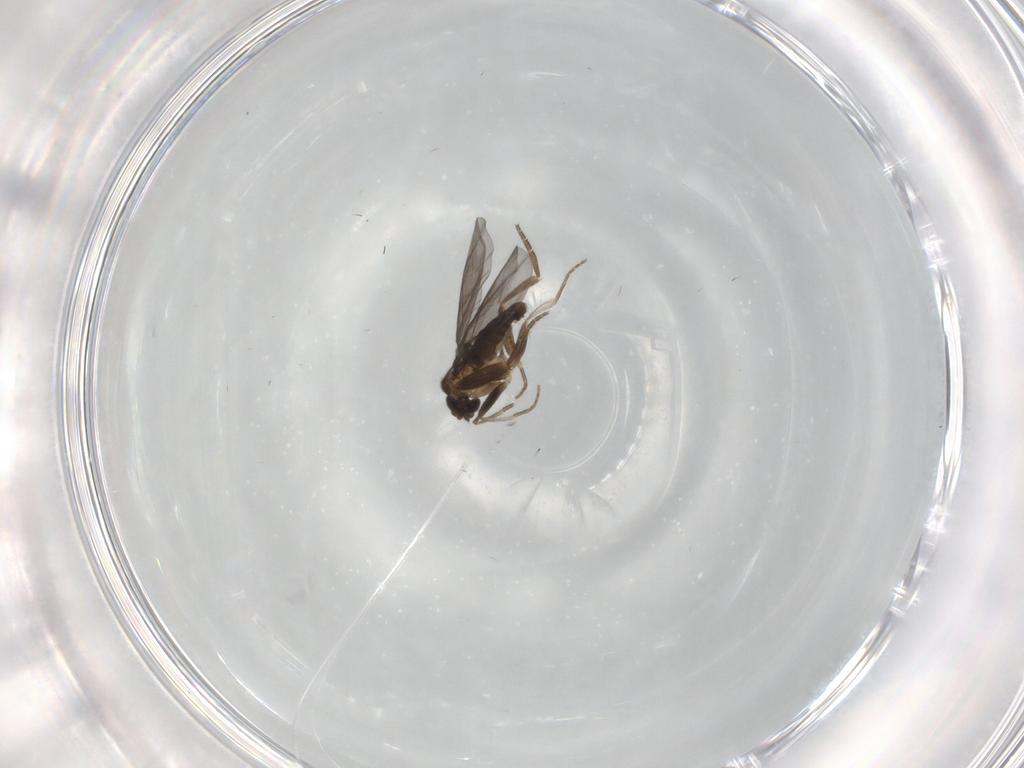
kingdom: Animalia
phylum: Arthropoda
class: Insecta
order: Diptera
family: Phoridae
